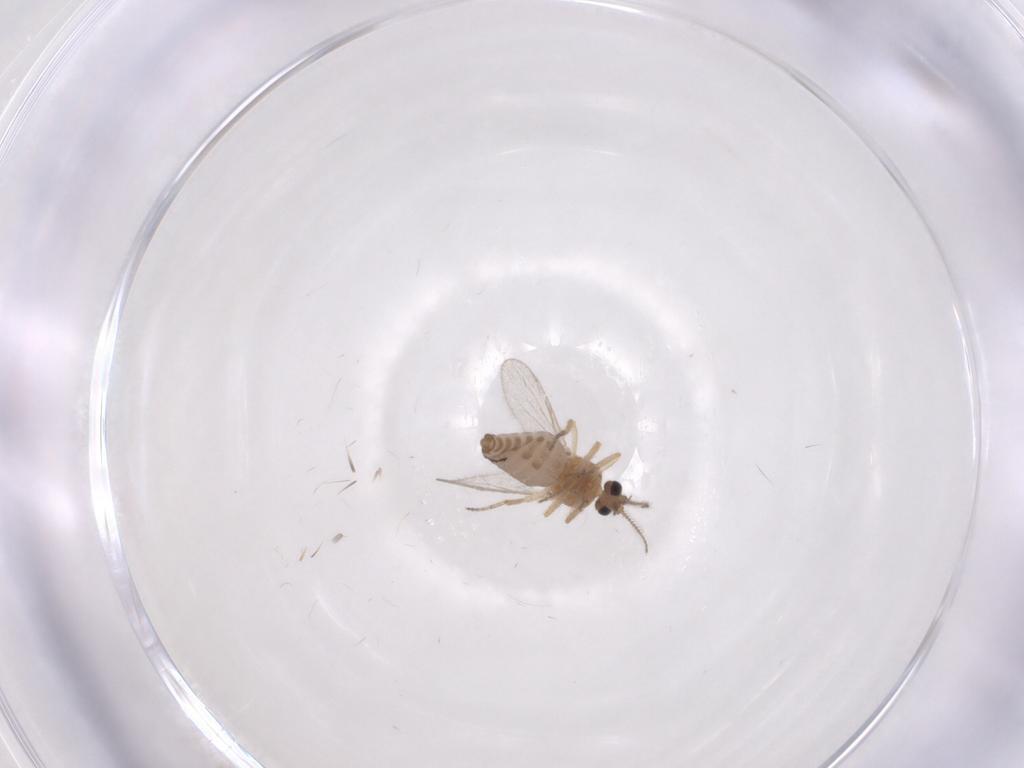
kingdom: Animalia
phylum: Arthropoda
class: Insecta
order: Diptera
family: Ceratopogonidae
